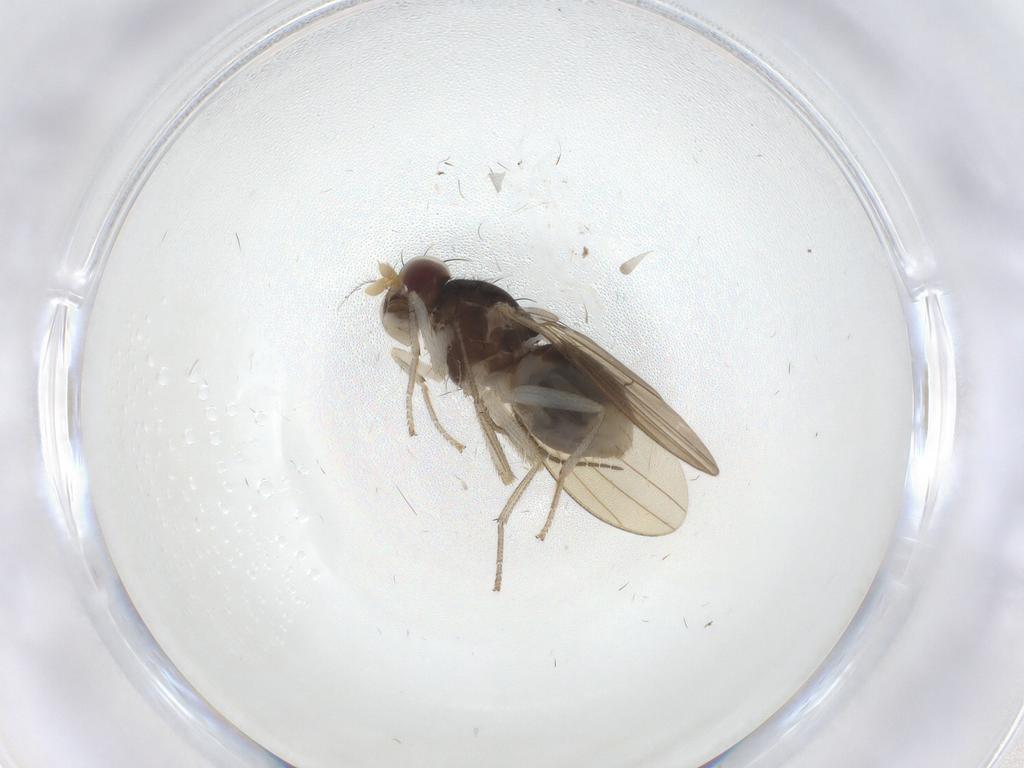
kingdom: Animalia
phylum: Arthropoda
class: Insecta
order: Diptera
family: Lauxaniidae
